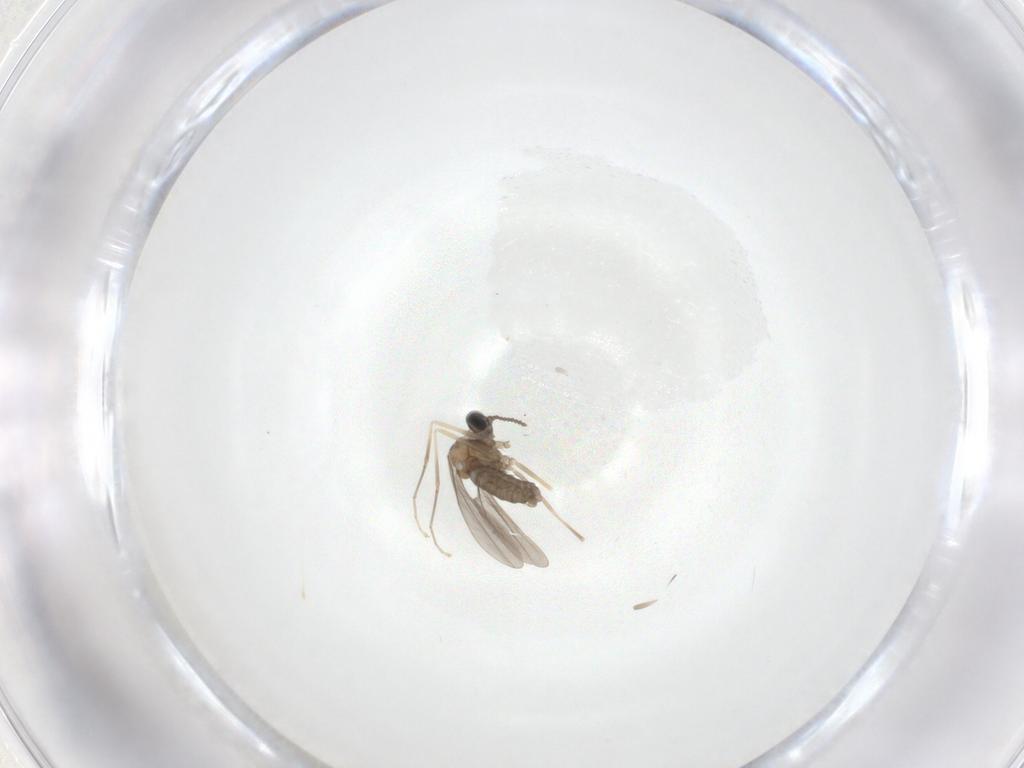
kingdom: Animalia
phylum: Arthropoda
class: Insecta
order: Diptera
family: Cecidomyiidae
